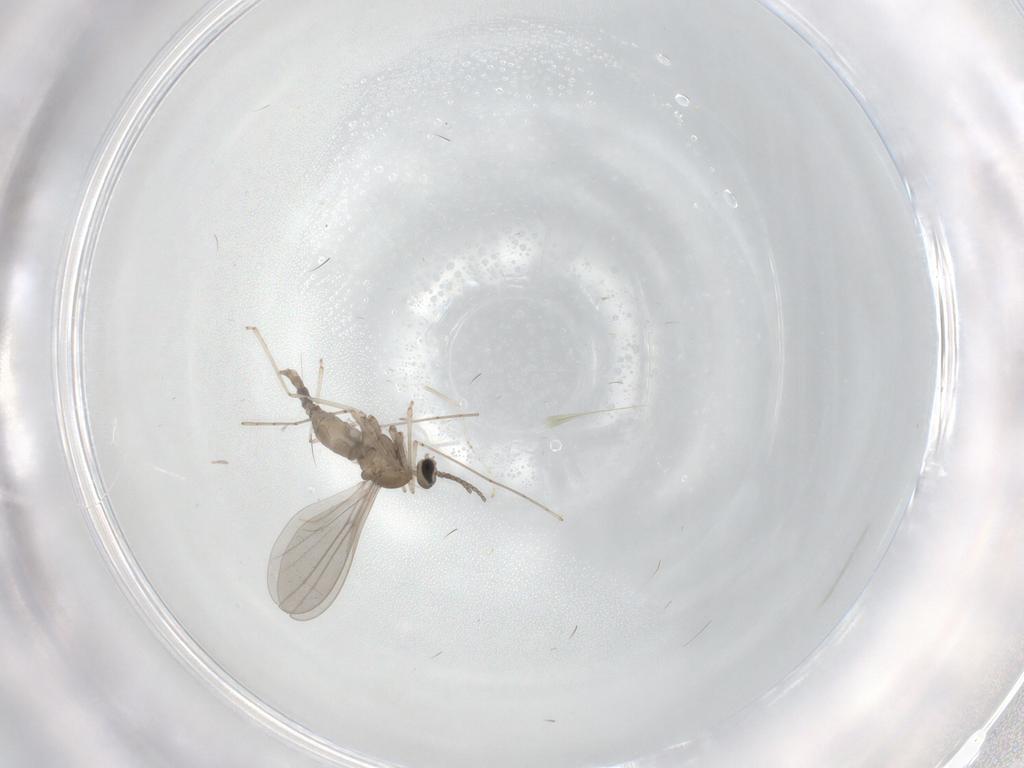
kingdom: Animalia
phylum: Arthropoda
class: Insecta
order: Diptera
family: Cecidomyiidae
